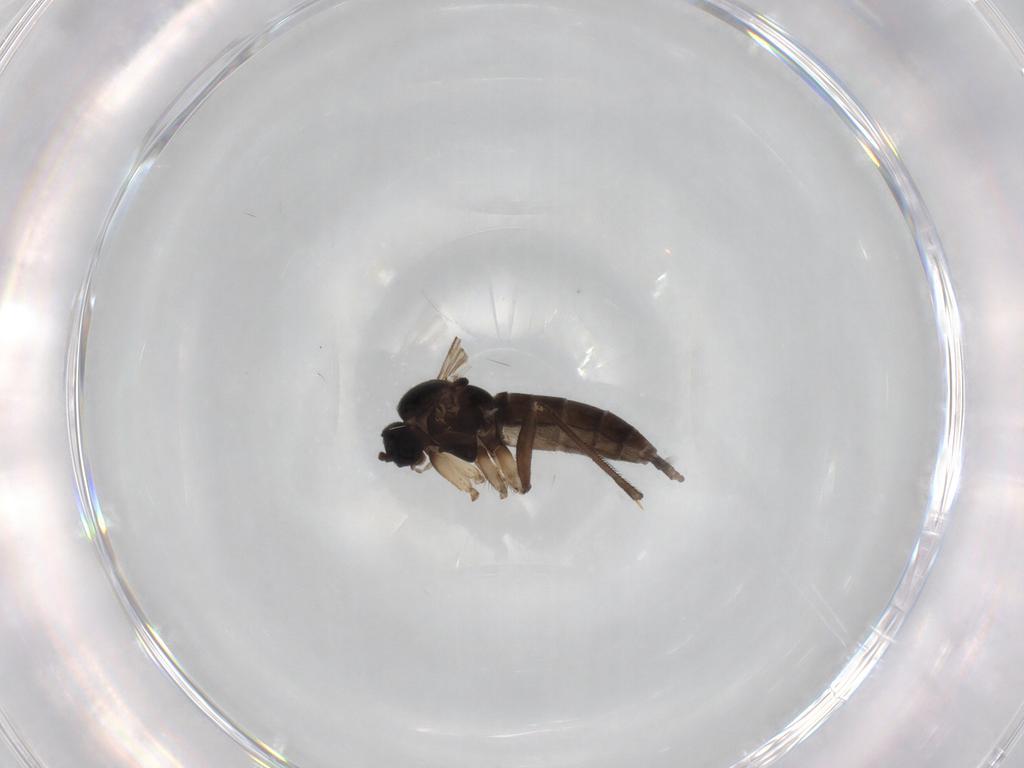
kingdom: Animalia
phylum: Arthropoda
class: Insecta
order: Diptera
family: Sciaridae
